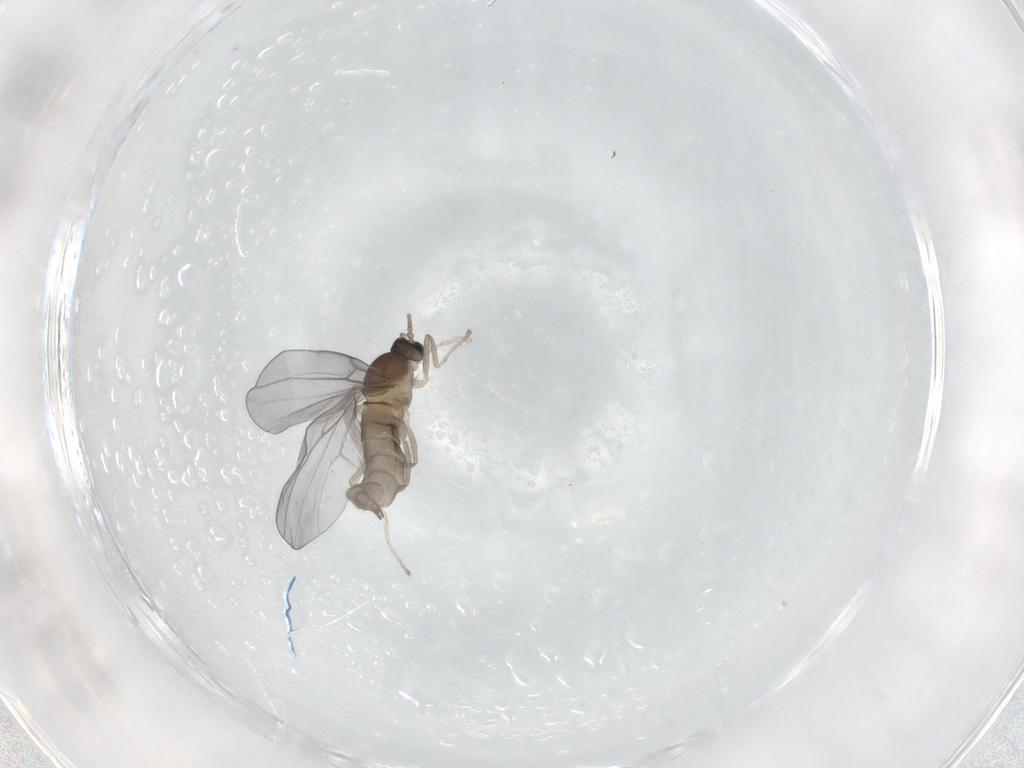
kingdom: Animalia
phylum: Arthropoda
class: Insecta
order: Diptera
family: Cecidomyiidae
